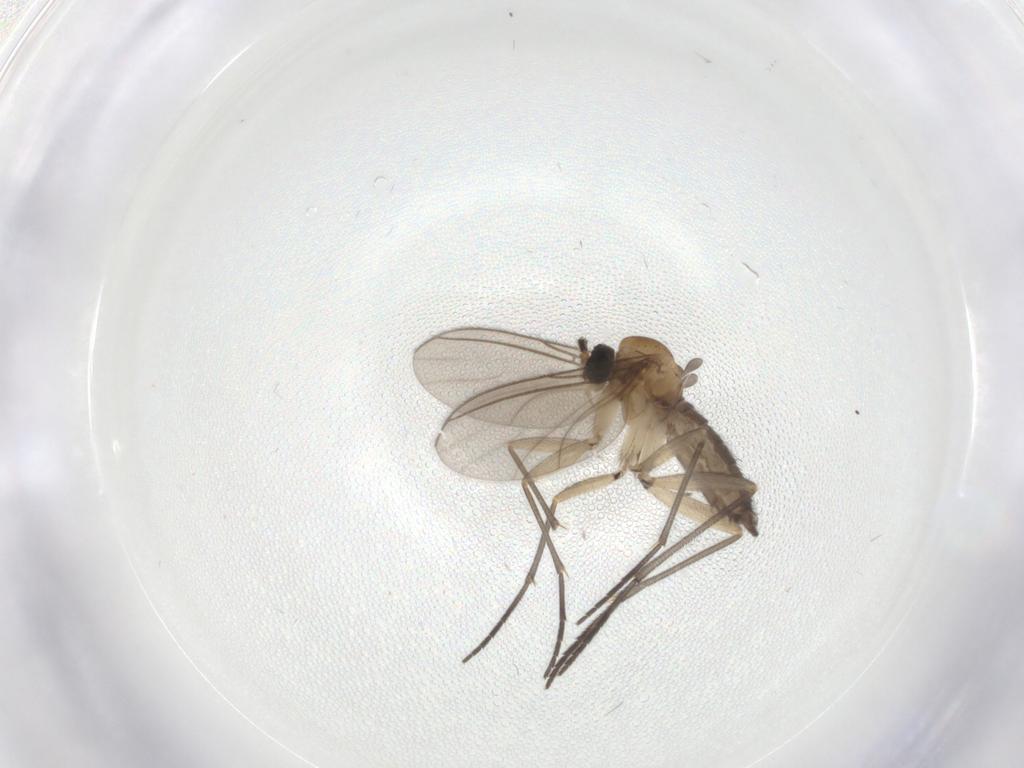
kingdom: Animalia
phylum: Arthropoda
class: Insecta
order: Diptera
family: Sciaridae
